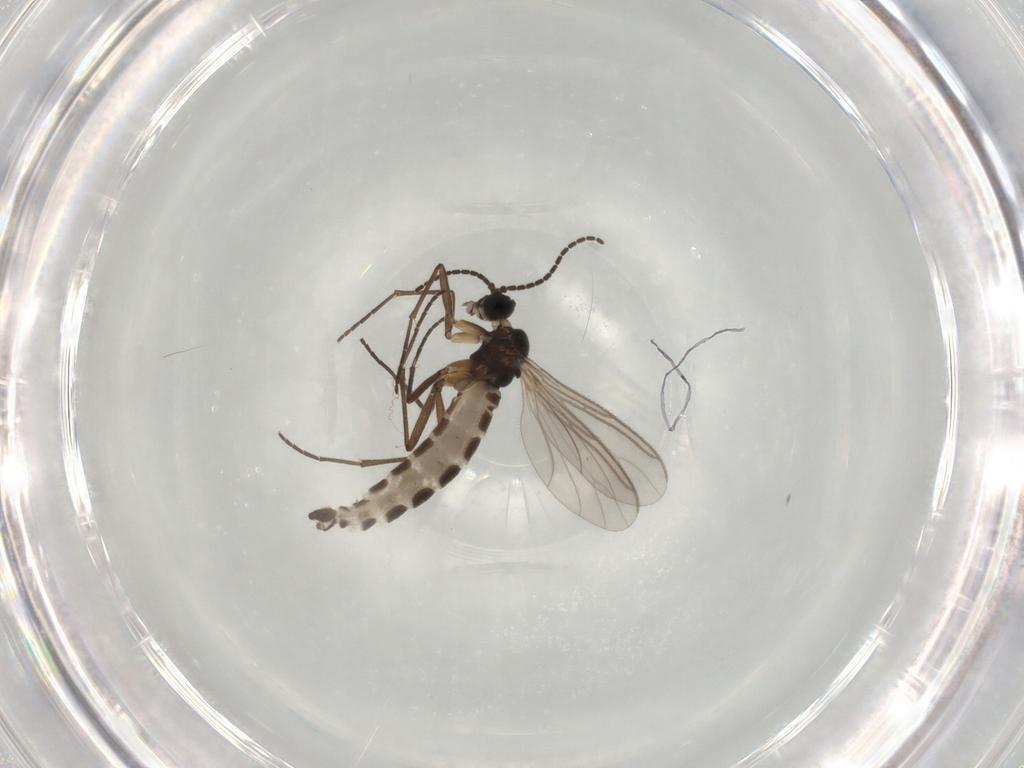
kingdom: Animalia
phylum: Arthropoda
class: Insecta
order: Diptera
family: Sciaridae
